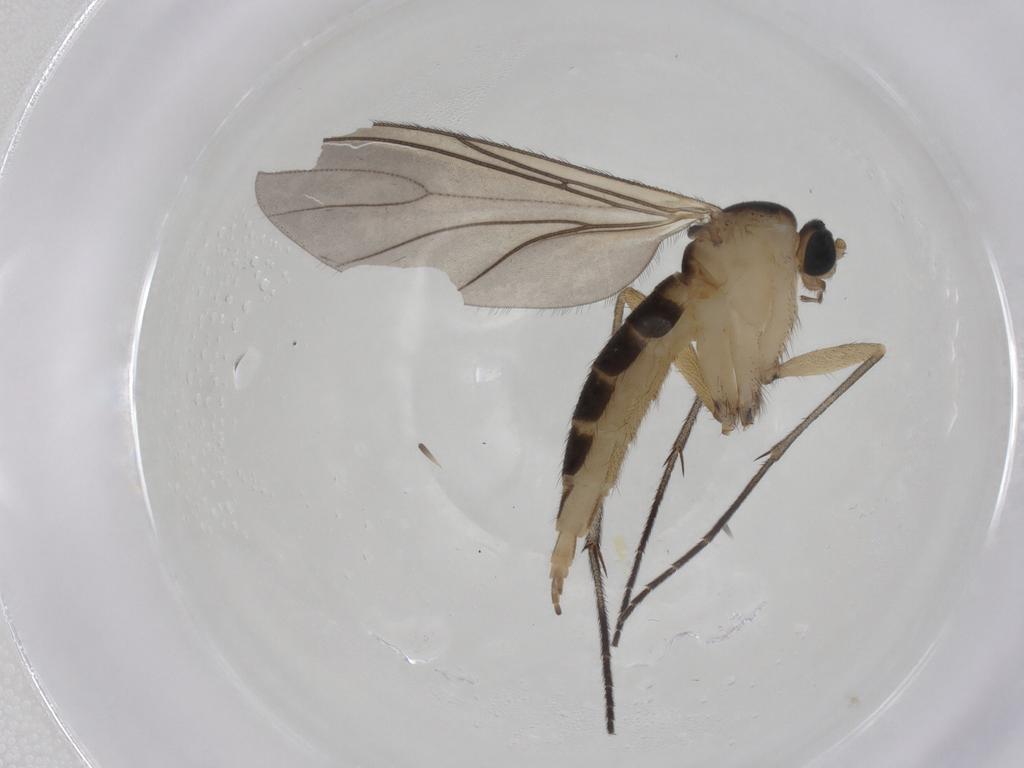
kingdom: Animalia
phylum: Arthropoda
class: Insecta
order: Diptera
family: Sciaridae
